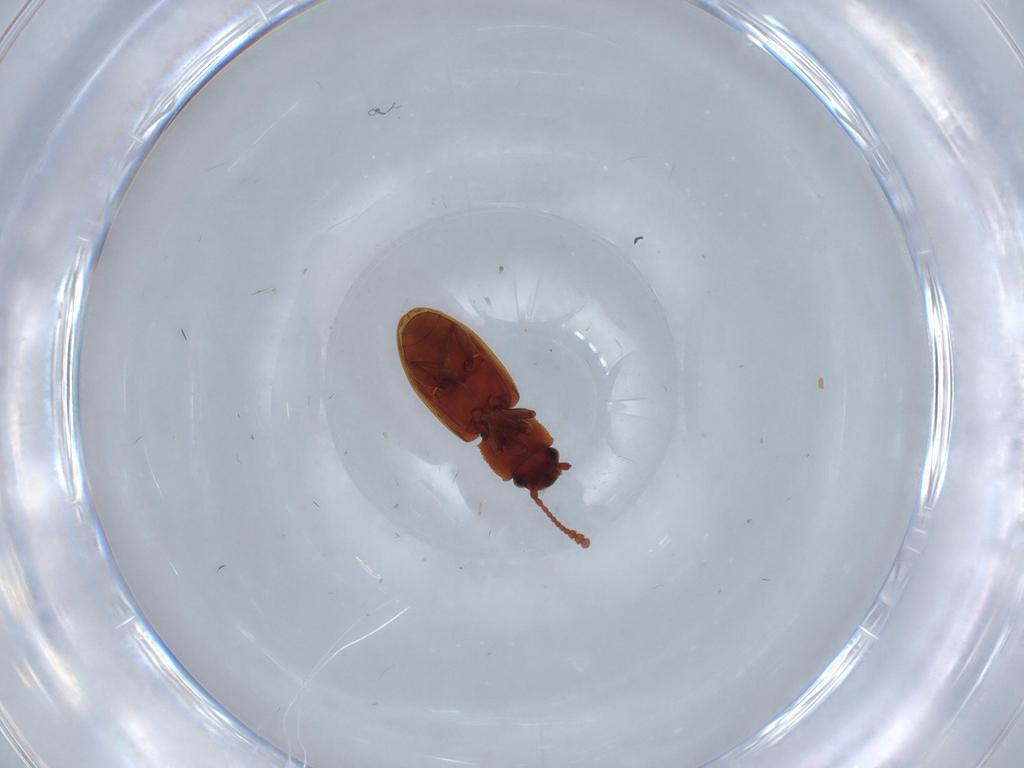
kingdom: Animalia
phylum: Arthropoda
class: Insecta
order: Coleoptera
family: Silvanidae
